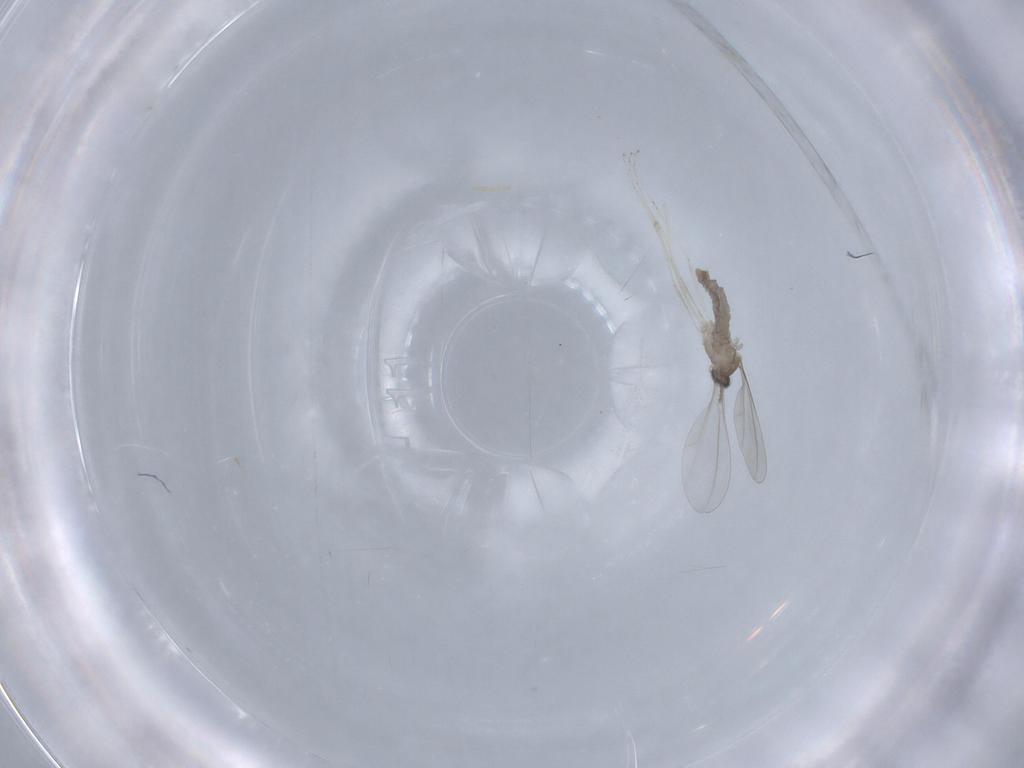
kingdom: Animalia
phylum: Arthropoda
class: Insecta
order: Diptera
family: Cecidomyiidae
